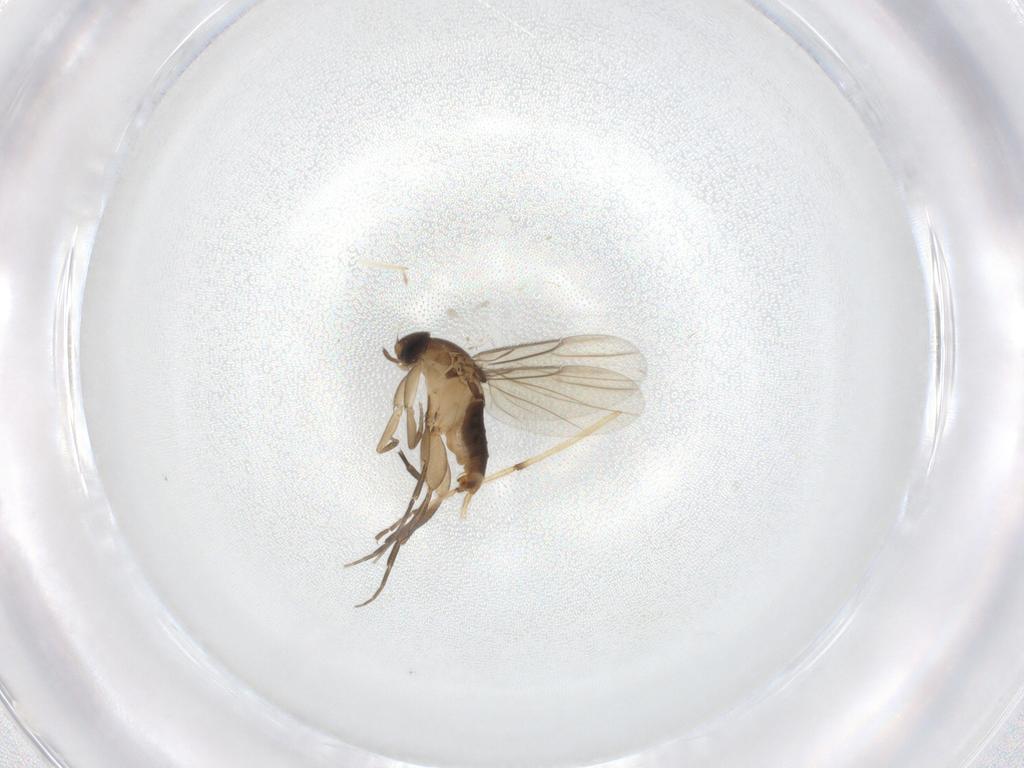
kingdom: Animalia
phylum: Arthropoda
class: Insecta
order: Diptera
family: Phoridae
